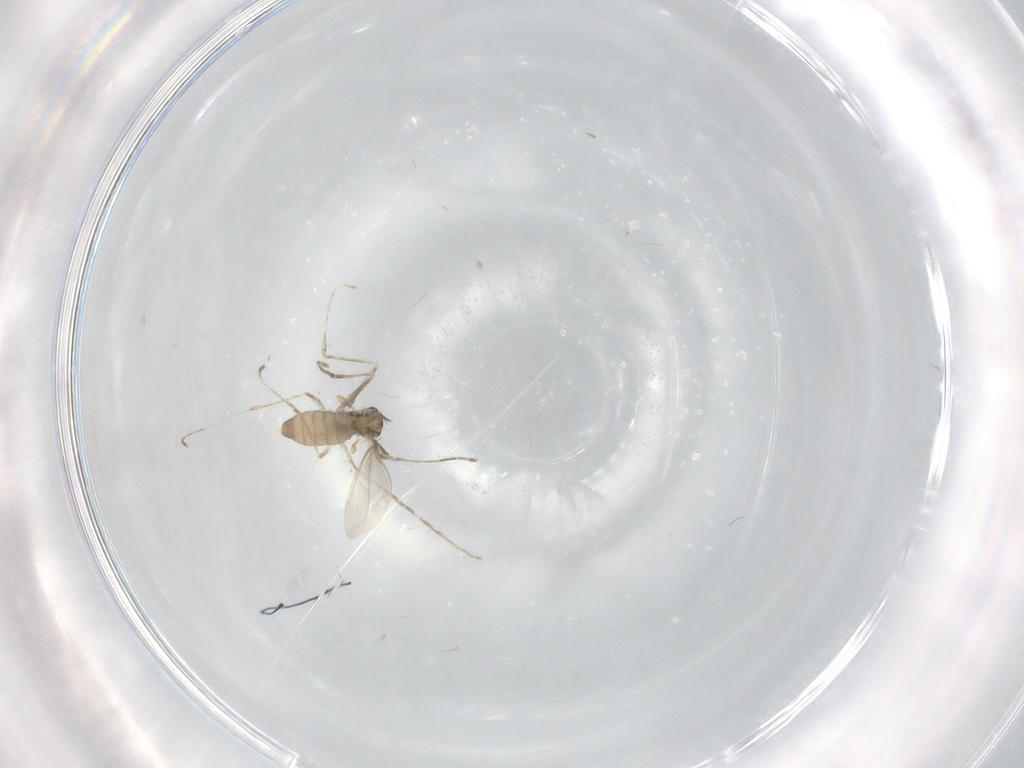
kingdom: Animalia
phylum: Arthropoda
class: Insecta
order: Diptera
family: Cecidomyiidae
